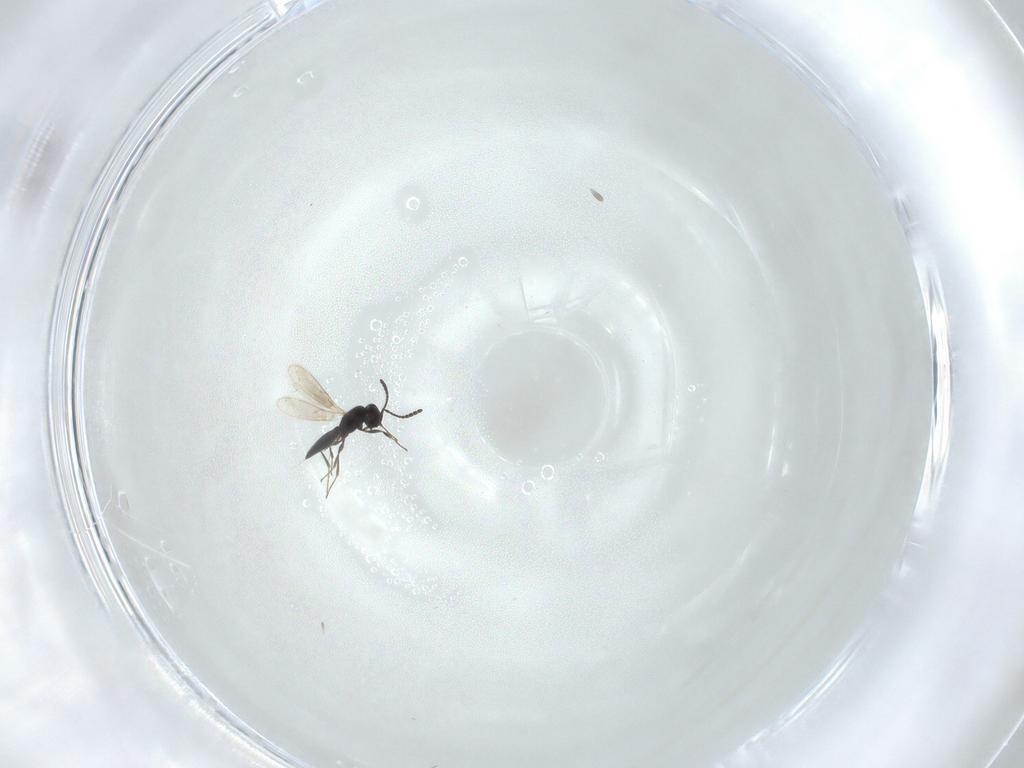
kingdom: Animalia
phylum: Arthropoda
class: Insecta
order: Hymenoptera
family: Scelionidae
